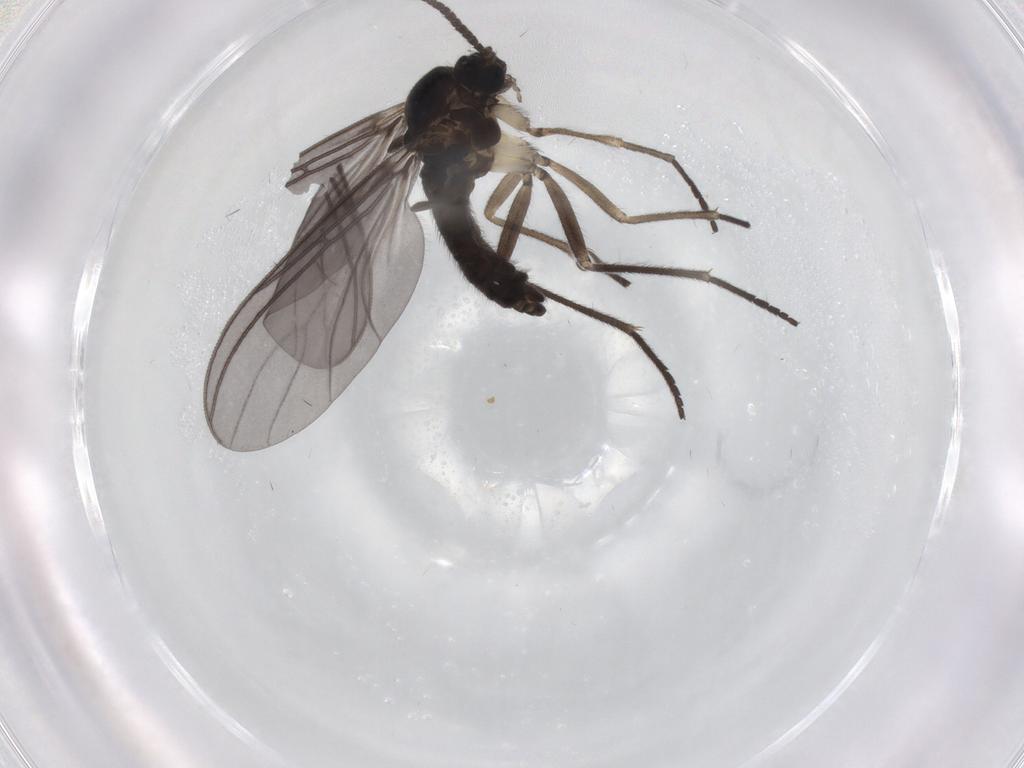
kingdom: Animalia
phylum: Arthropoda
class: Insecta
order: Diptera
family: Sciaridae
